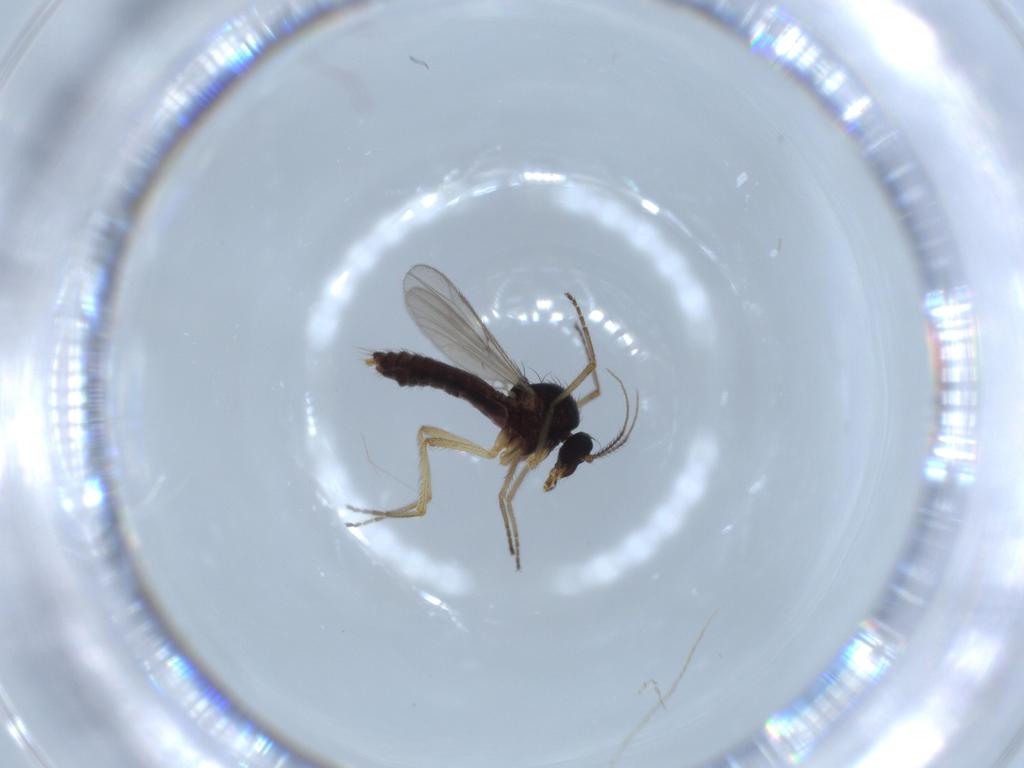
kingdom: Animalia
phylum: Arthropoda
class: Insecta
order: Diptera
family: Ceratopogonidae
